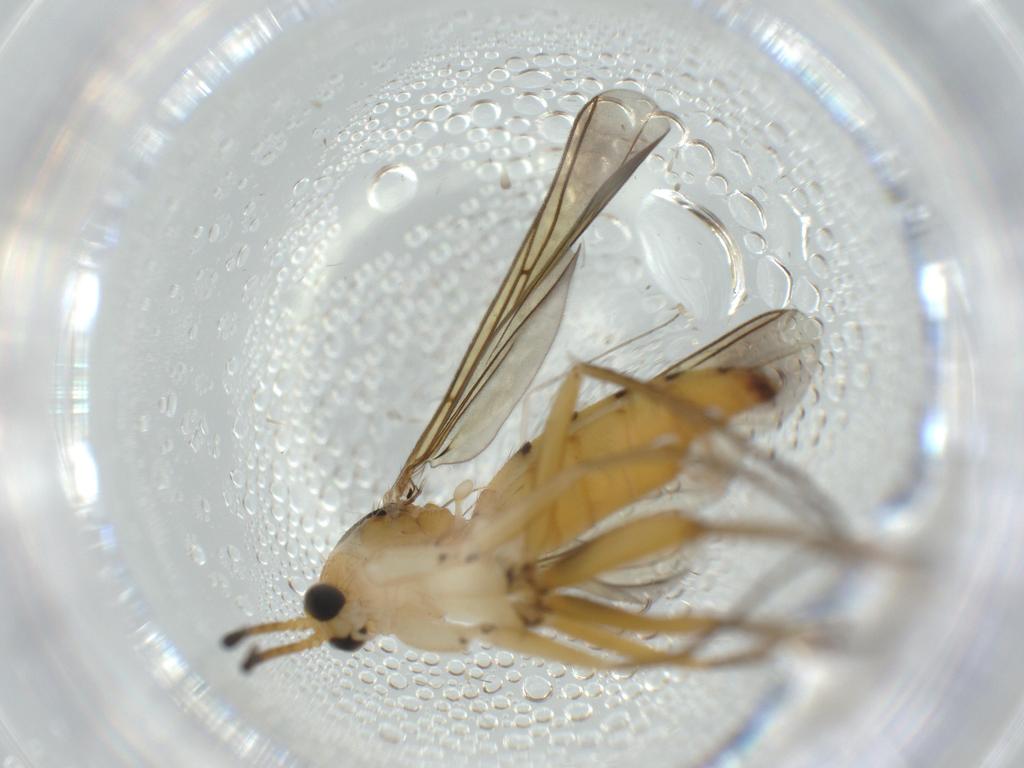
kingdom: Animalia
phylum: Arthropoda
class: Insecta
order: Diptera
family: Mycetophilidae
